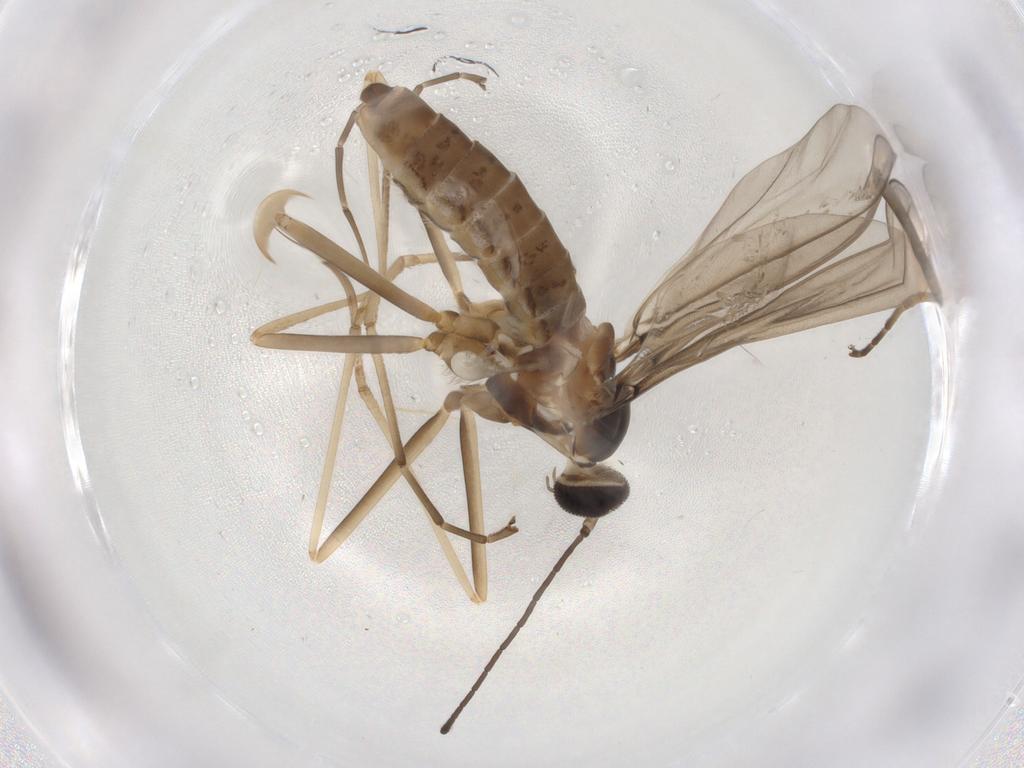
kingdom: Animalia
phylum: Arthropoda
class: Insecta
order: Diptera
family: Cecidomyiidae
